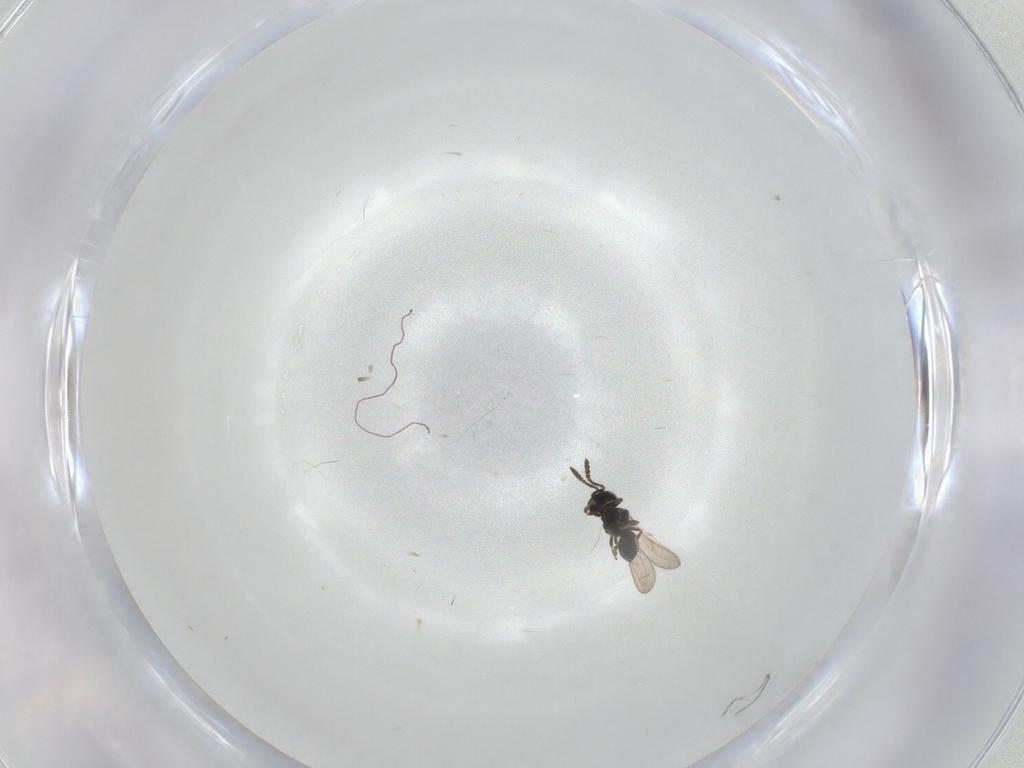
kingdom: Animalia
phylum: Arthropoda
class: Insecta
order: Hymenoptera
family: Scelionidae
